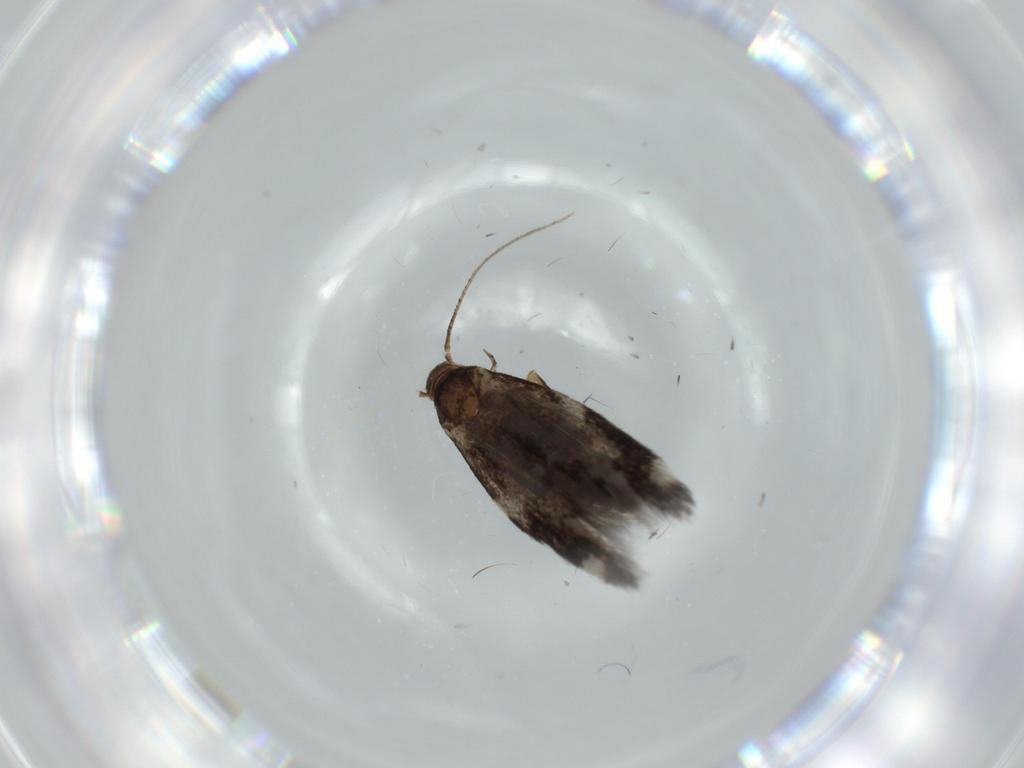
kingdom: Animalia
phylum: Arthropoda
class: Insecta
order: Lepidoptera
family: Cosmopterigidae
